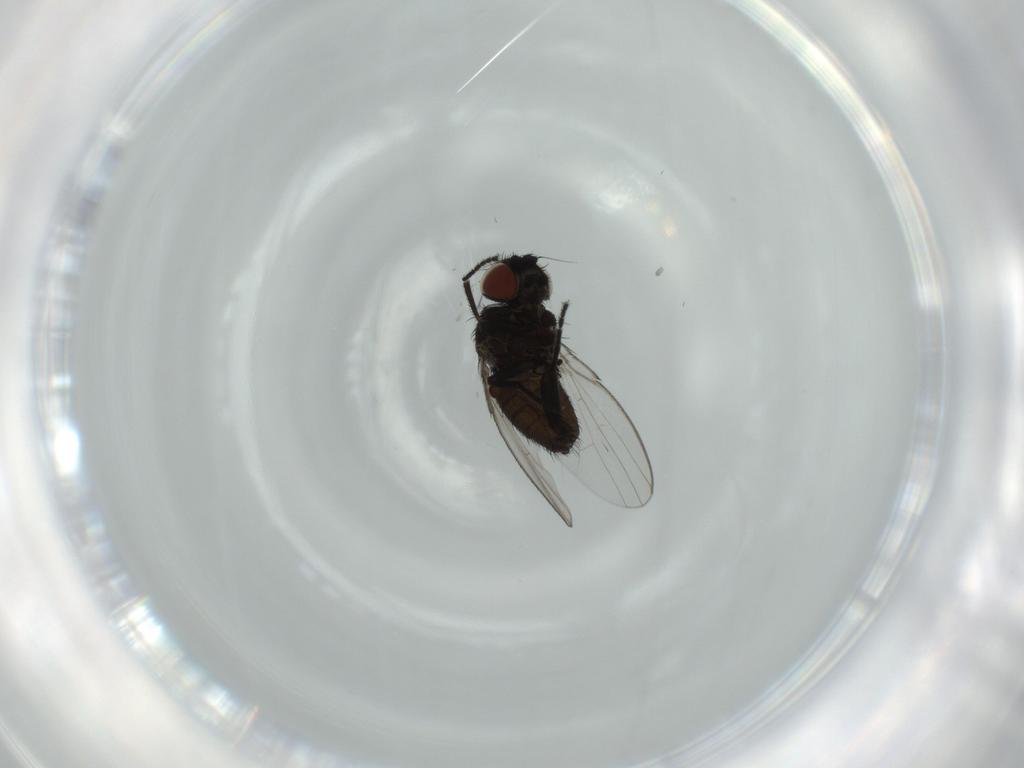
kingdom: Animalia
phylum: Arthropoda
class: Insecta
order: Diptera
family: Milichiidae
